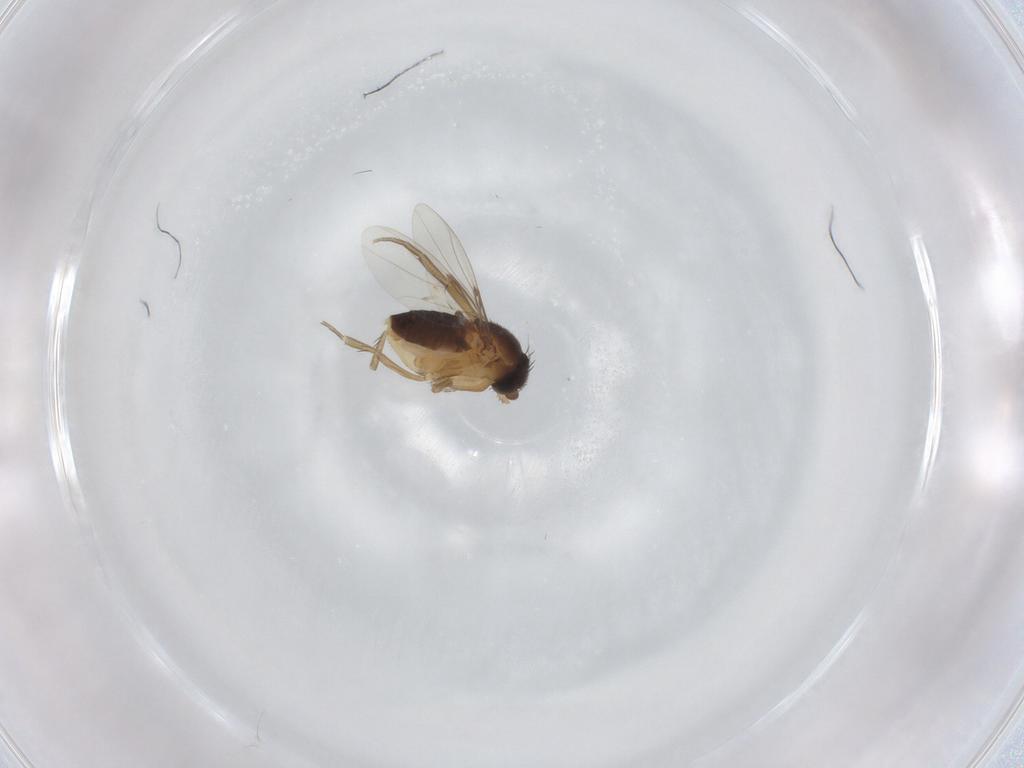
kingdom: Animalia
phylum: Arthropoda
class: Insecta
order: Diptera
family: Phoridae
